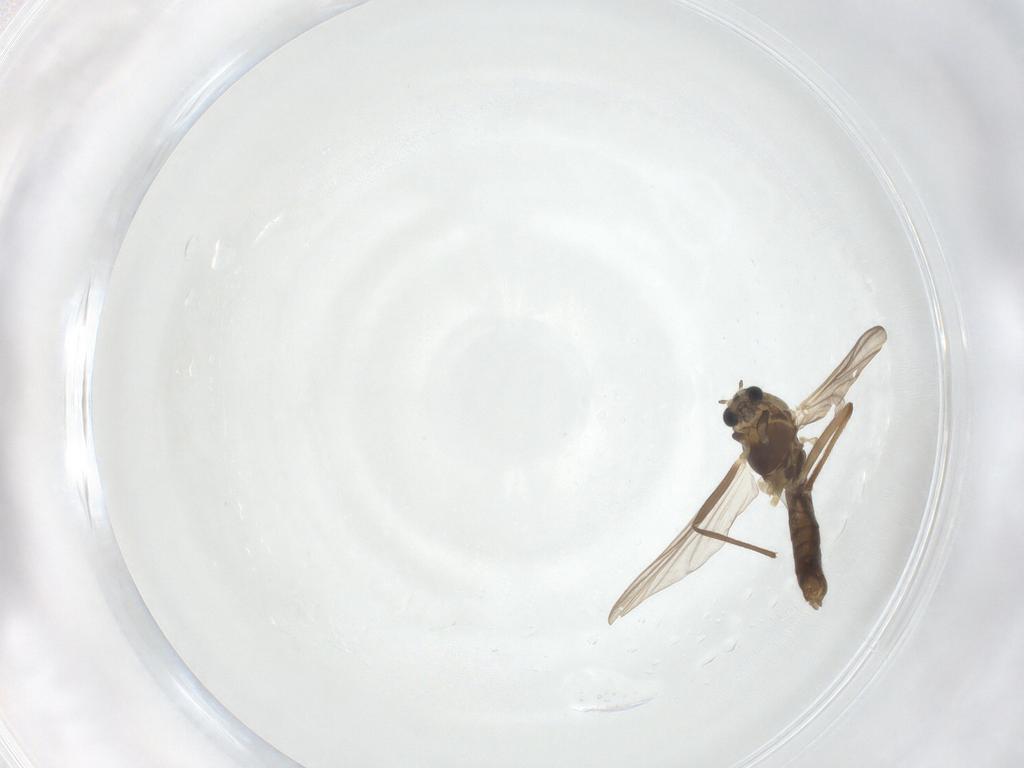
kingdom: Animalia
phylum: Arthropoda
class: Insecta
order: Diptera
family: Chironomidae
